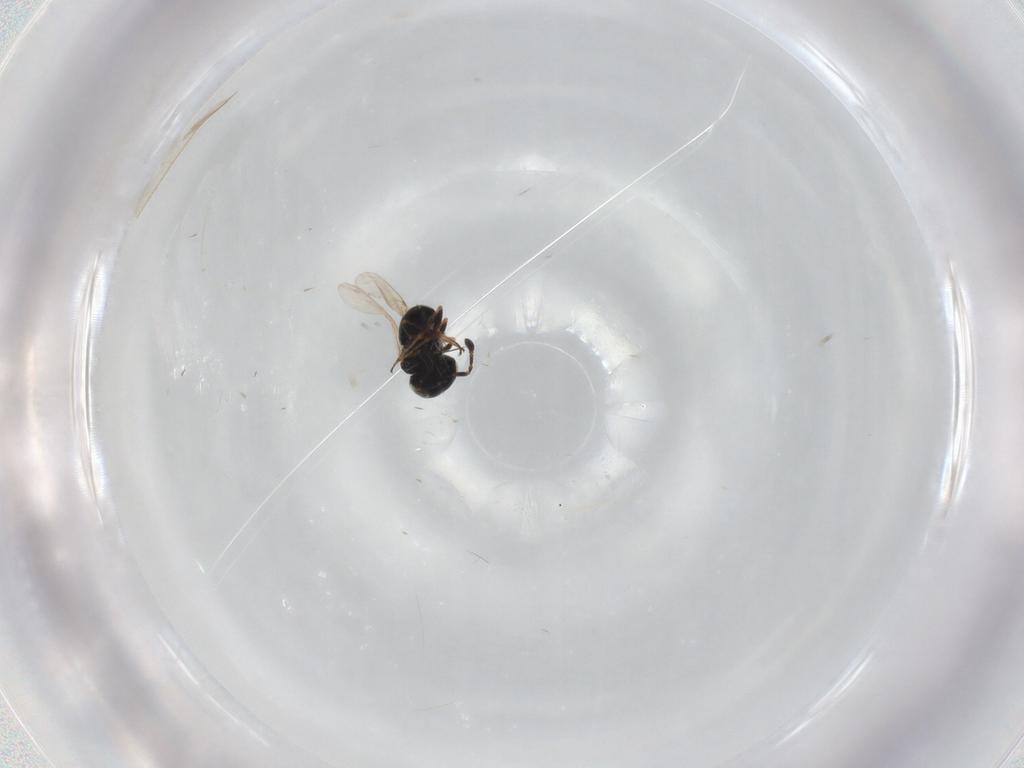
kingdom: Animalia
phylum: Arthropoda
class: Insecta
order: Hymenoptera
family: Scelionidae
